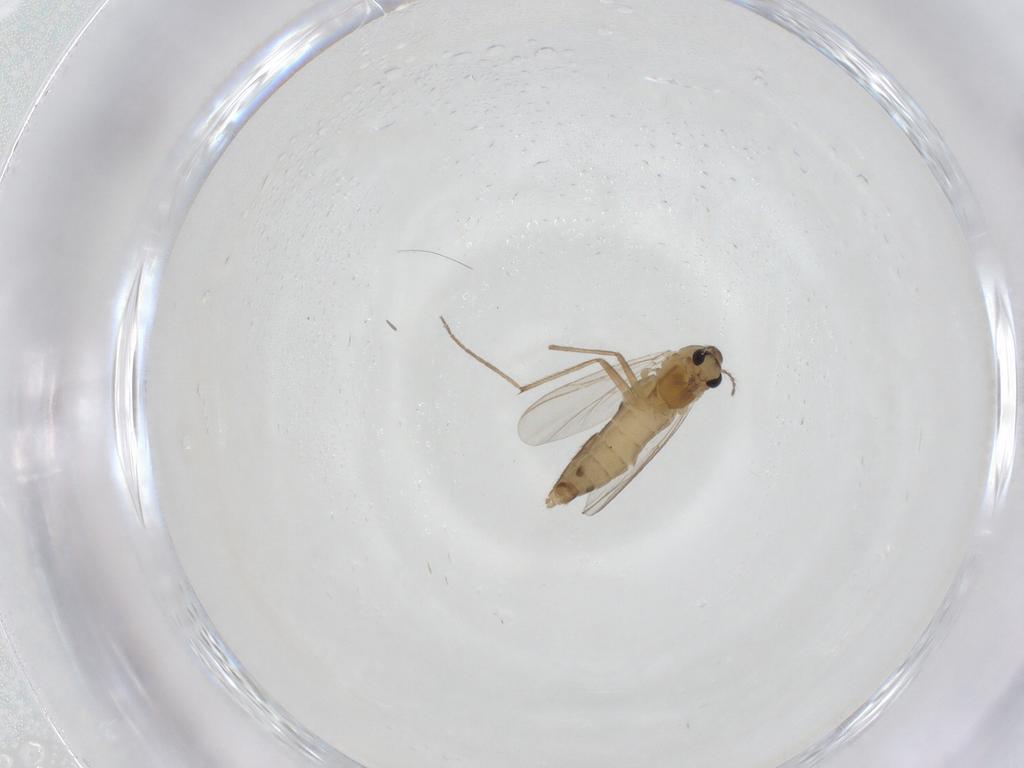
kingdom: Animalia
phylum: Arthropoda
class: Insecta
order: Diptera
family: Chironomidae
